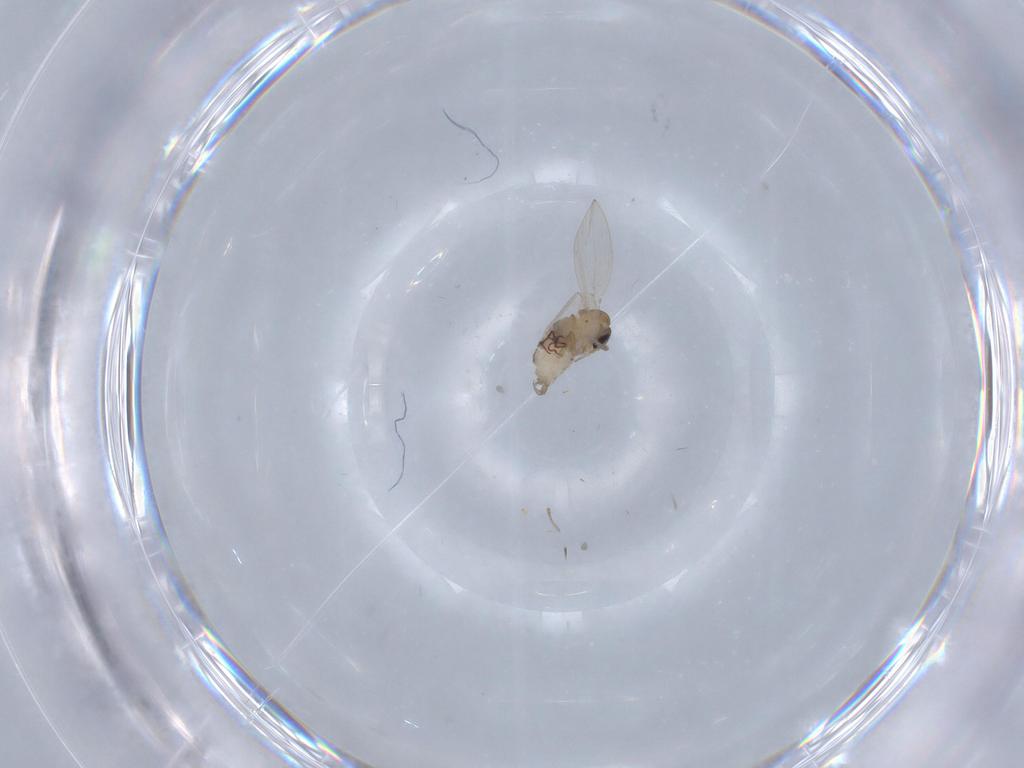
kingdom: Animalia
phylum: Arthropoda
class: Insecta
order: Diptera
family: Psychodidae
